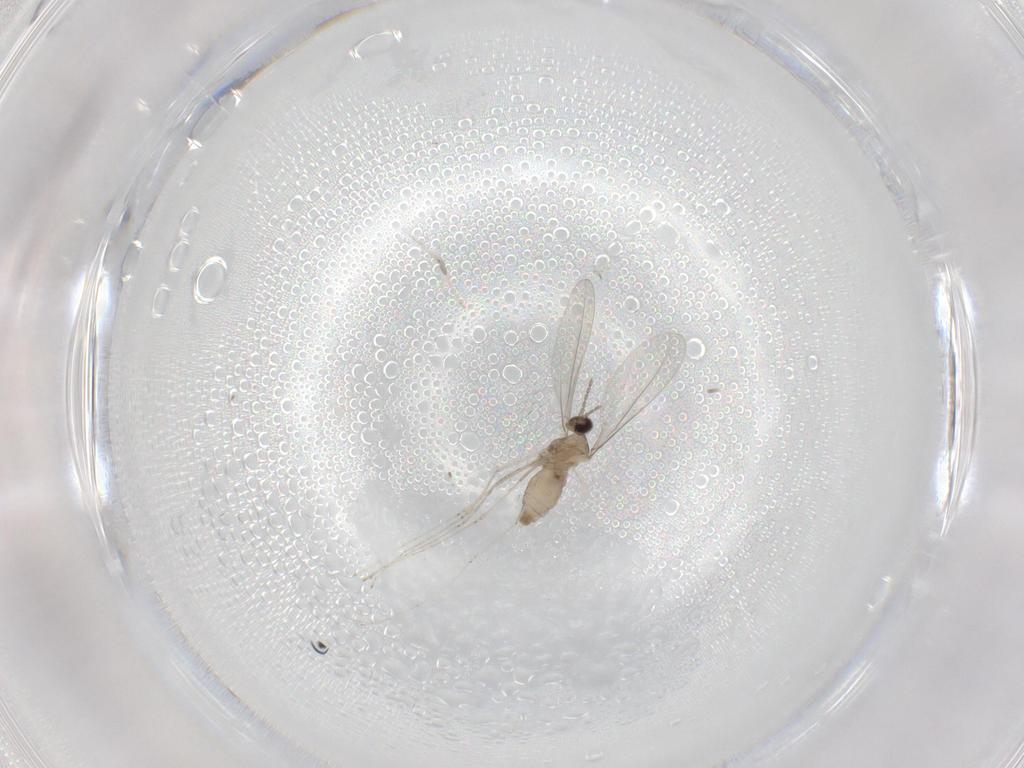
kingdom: Animalia
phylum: Arthropoda
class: Insecta
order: Diptera
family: Cecidomyiidae
